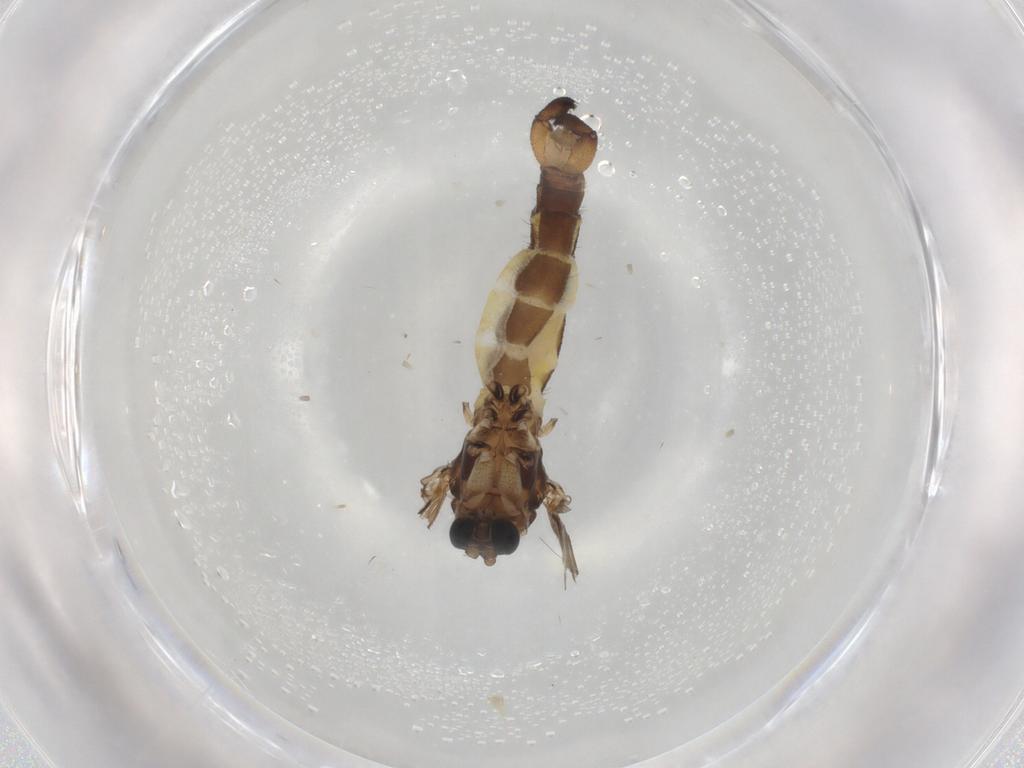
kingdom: Animalia
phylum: Arthropoda
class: Insecta
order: Diptera
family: Sciaridae
